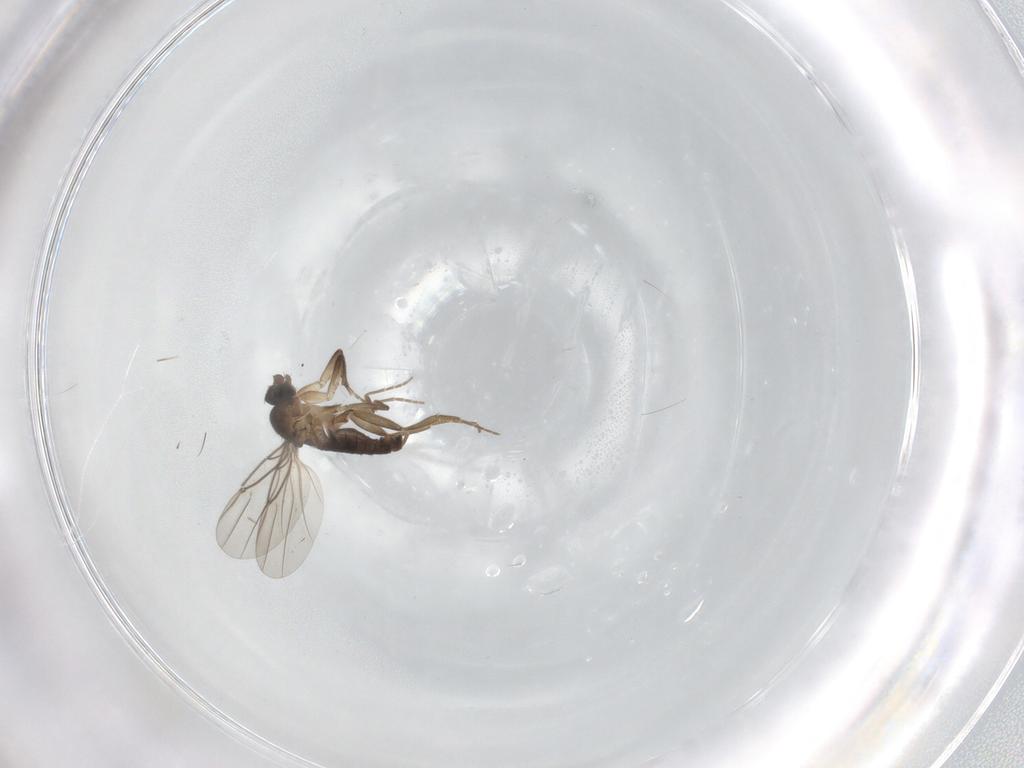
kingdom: Animalia
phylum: Arthropoda
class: Insecta
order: Diptera
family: Phoridae
